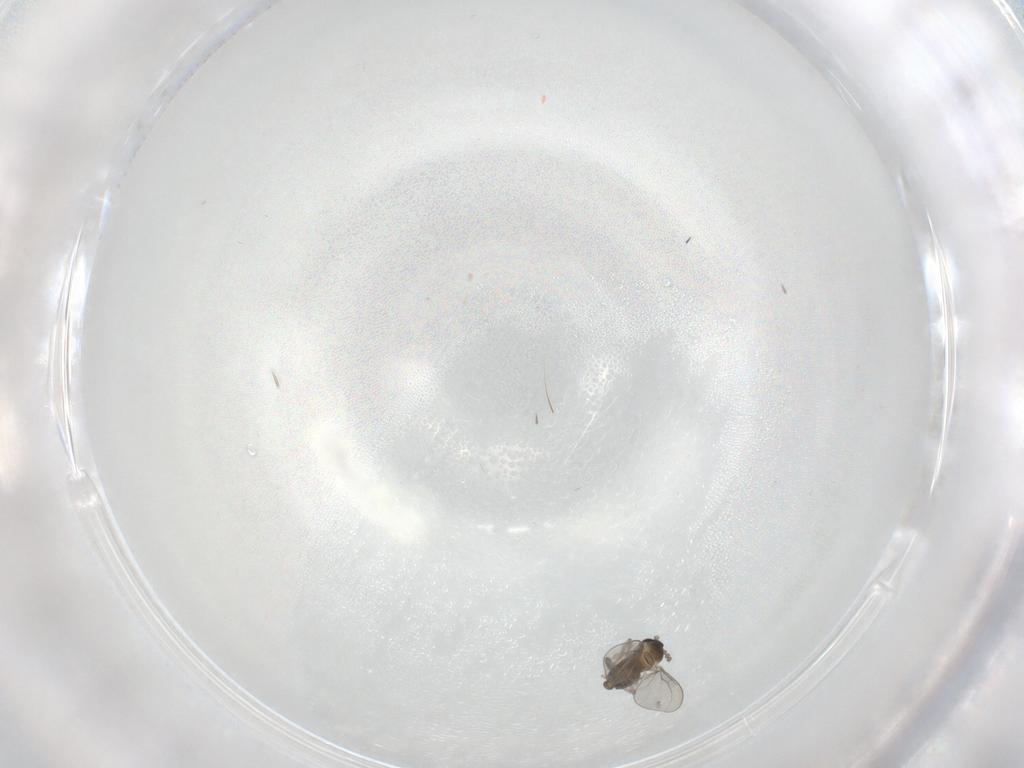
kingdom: Animalia
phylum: Arthropoda
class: Insecta
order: Diptera
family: Cecidomyiidae
